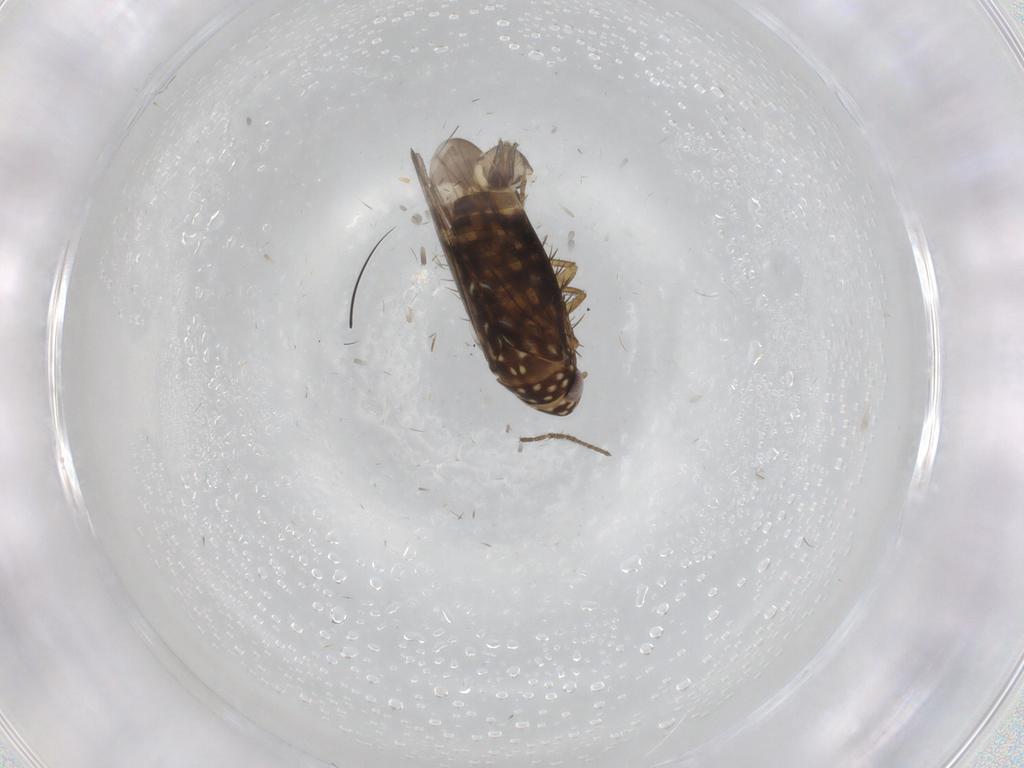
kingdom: Animalia
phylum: Arthropoda
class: Insecta
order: Hemiptera
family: Cicadellidae
